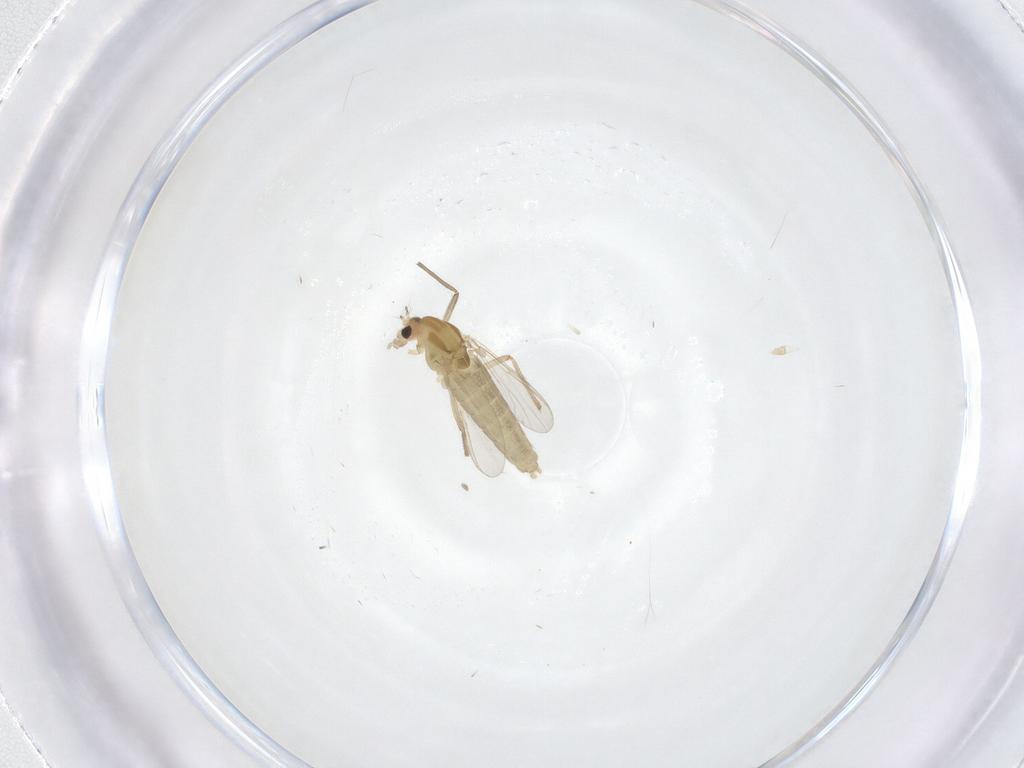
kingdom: Animalia
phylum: Arthropoda
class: Insecta
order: Diptera
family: Chironomidae
